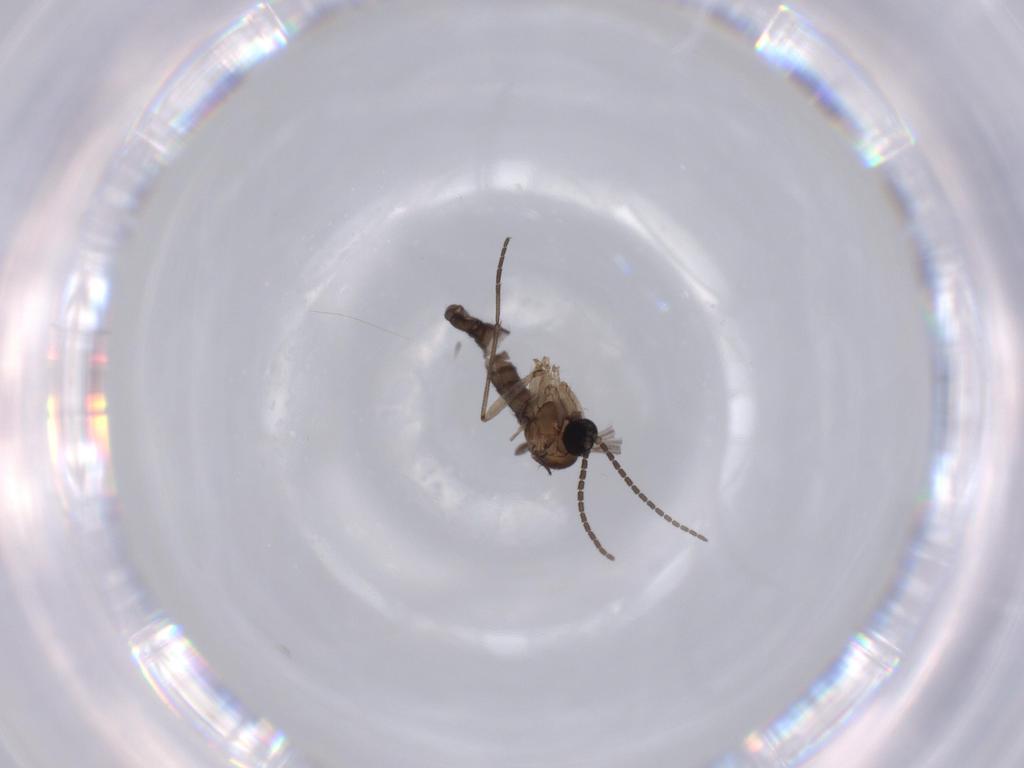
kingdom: Animalia
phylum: Arthropoda
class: Insecta
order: Diptera
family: Sciaridae
